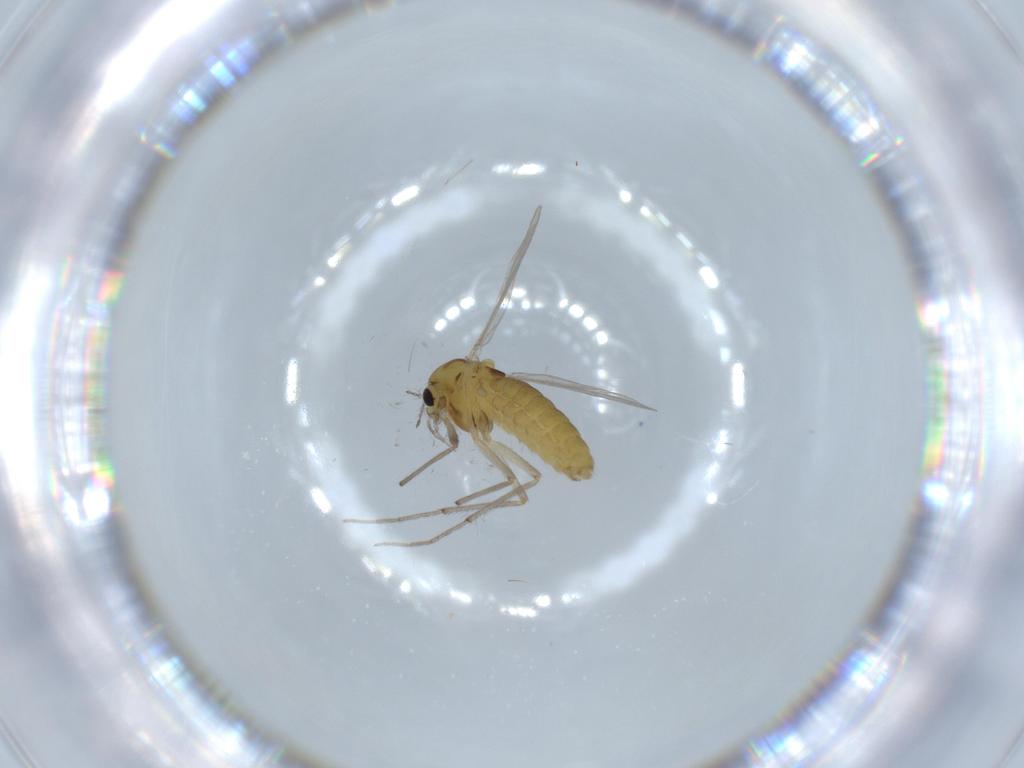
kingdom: Animalia
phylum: Arthropoda
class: Insecta
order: Diptera
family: Chironomidae
